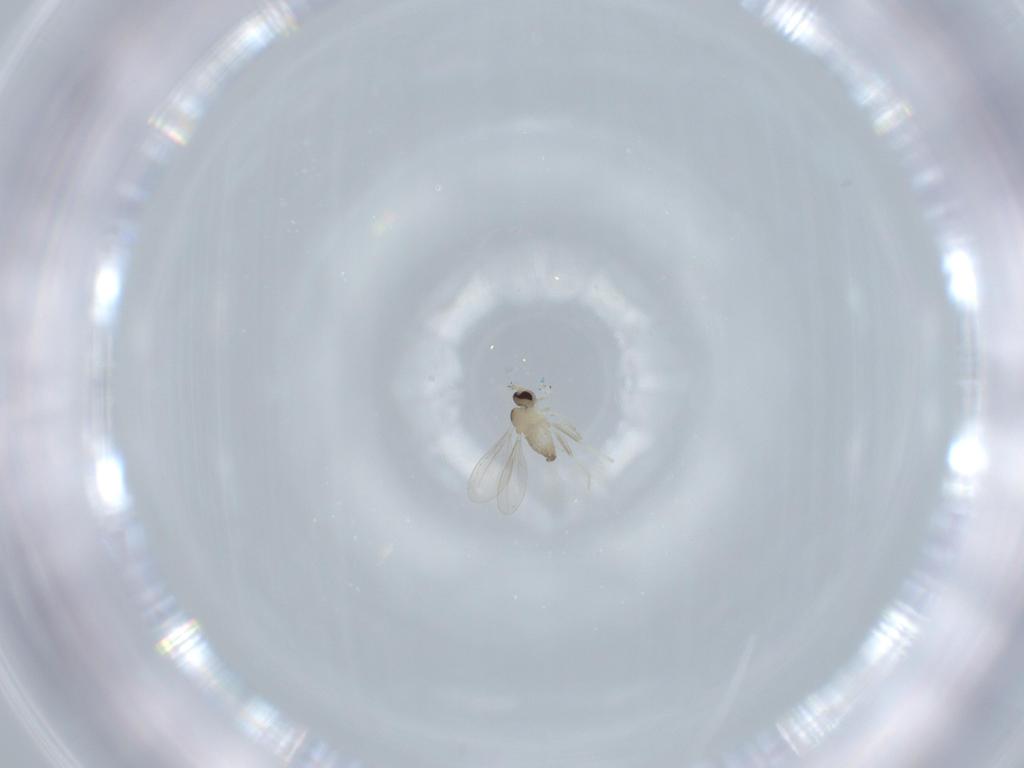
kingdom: Animalia
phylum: Arthropoda
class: Insecta
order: Diptera
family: Cecidomyiidae
